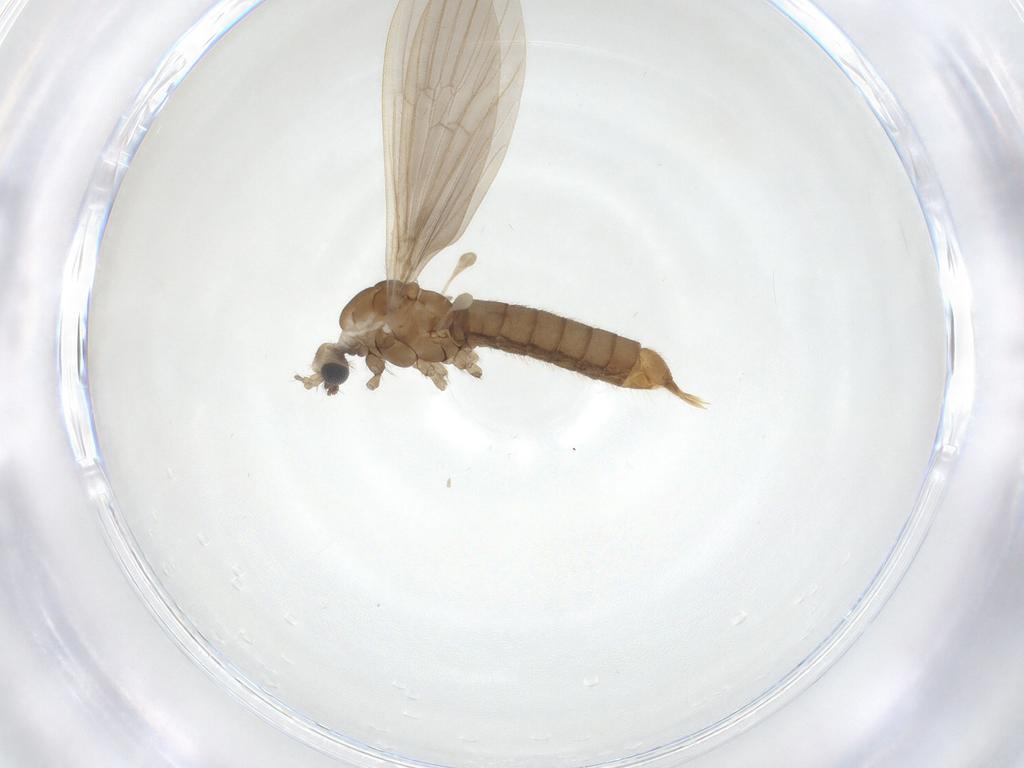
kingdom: Animalia
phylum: Arthropoda
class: Insecta
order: Diptera
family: Limoniidae
